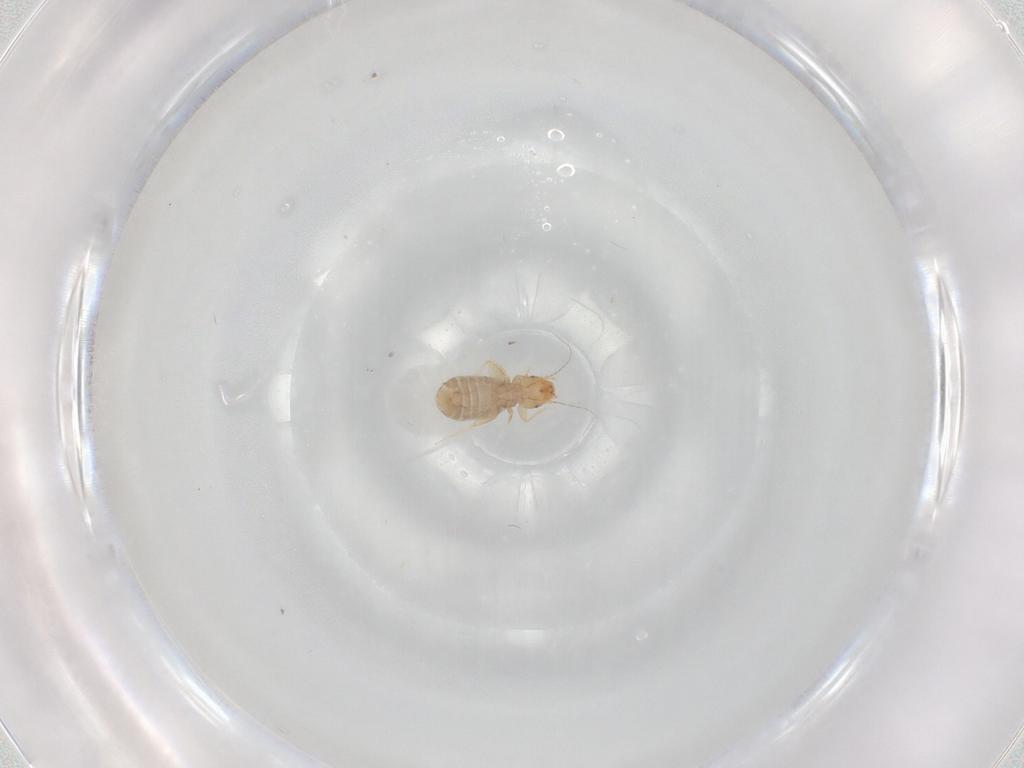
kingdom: Animalia
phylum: Arthropoda
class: Insecta
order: Psocodea
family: Liposcelididae
